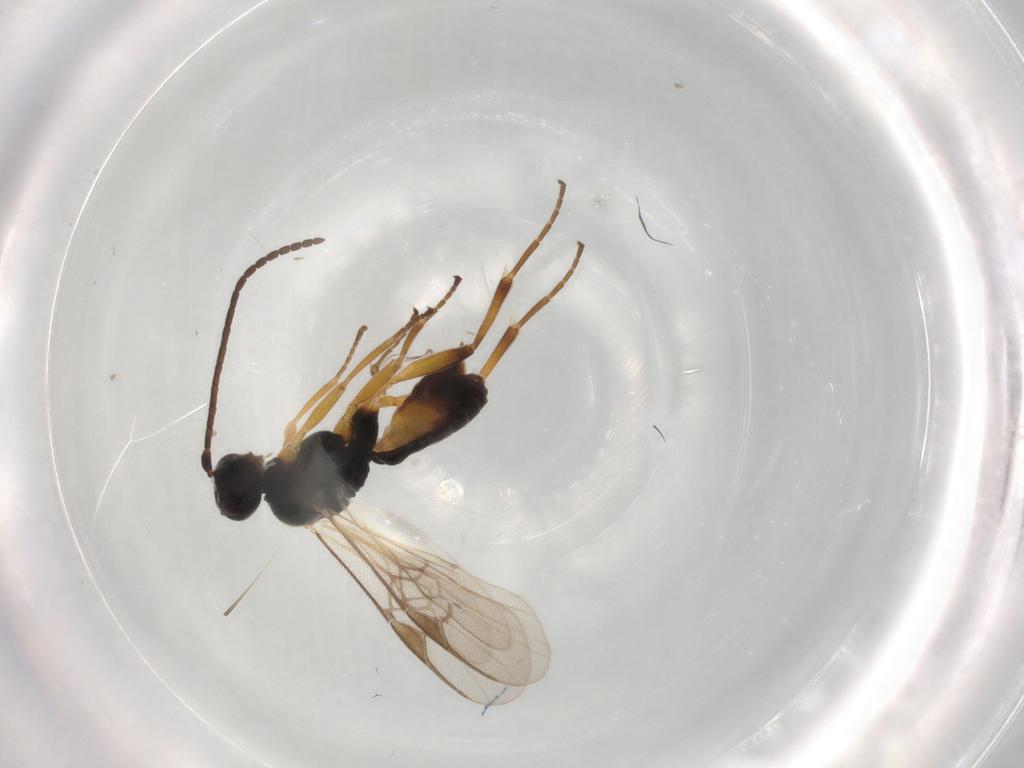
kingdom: Animalia
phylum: Arthropoda
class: Insecta
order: Hymenoptera
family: Braconidae
